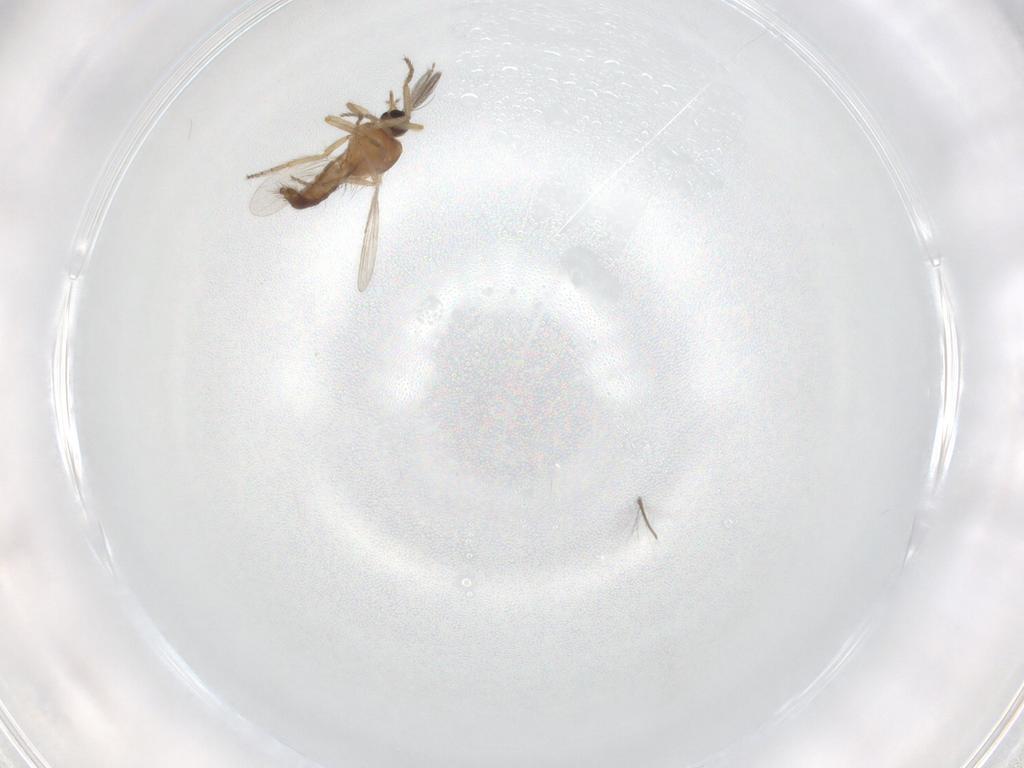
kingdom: Animalia
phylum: Arthropoda
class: Insecta
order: Diptera
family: Ceratopogonidae
